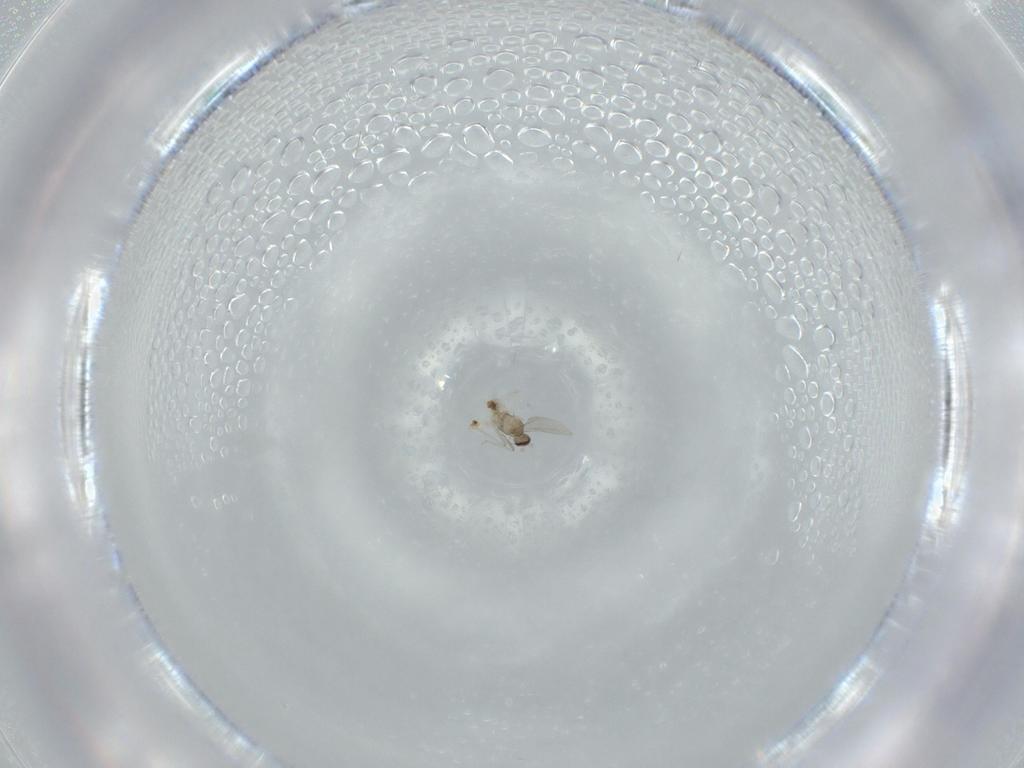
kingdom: Animalia
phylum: Arthropoda
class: Insecta
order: Diptera
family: Cecidomyiidae
